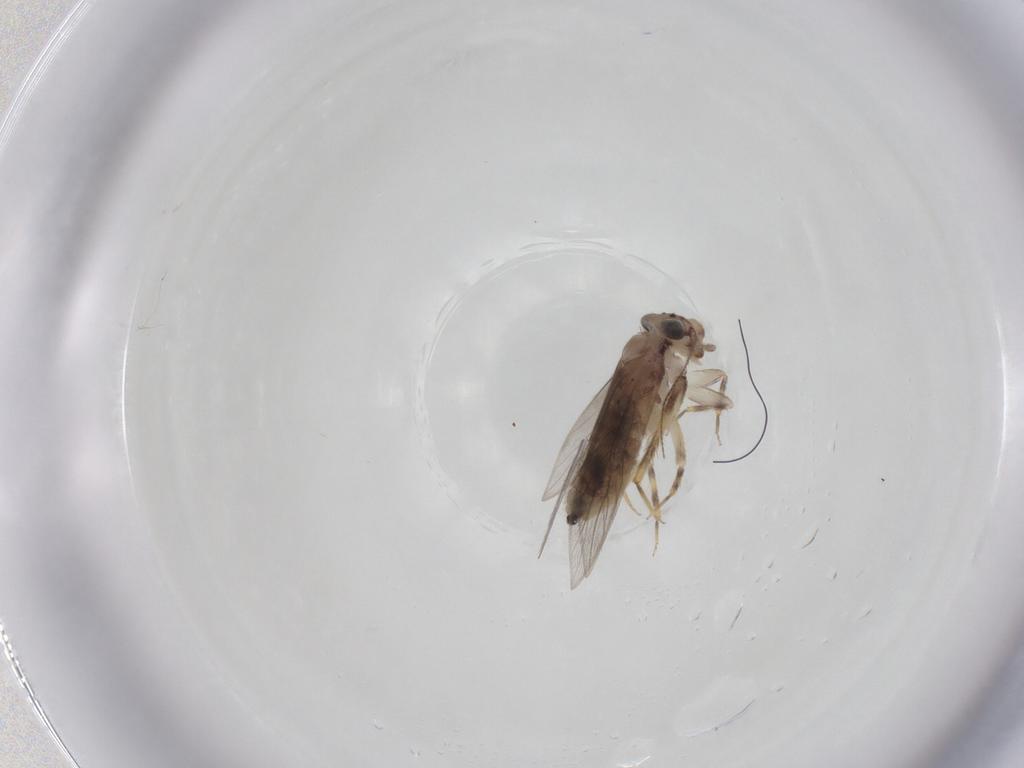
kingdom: Animalia
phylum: Arthropoda
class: Insecta
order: Psocodea
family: Lepidopsocidae
